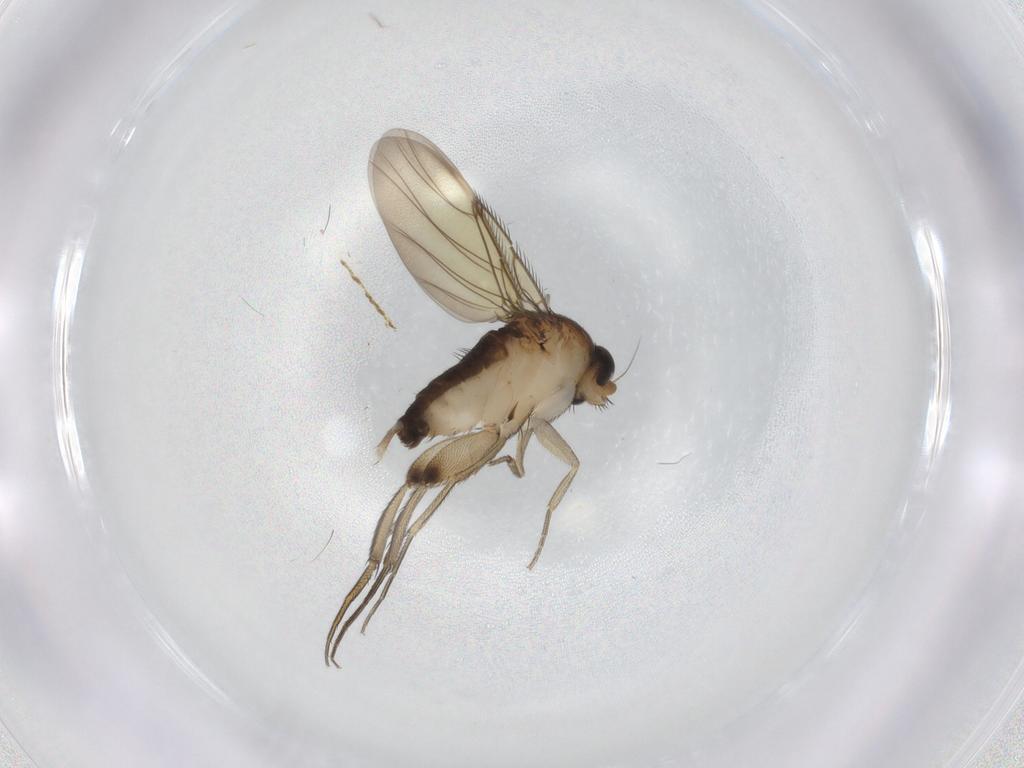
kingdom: Animalia
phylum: Arthropoda
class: Insecta
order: Diptera
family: Phoridae
